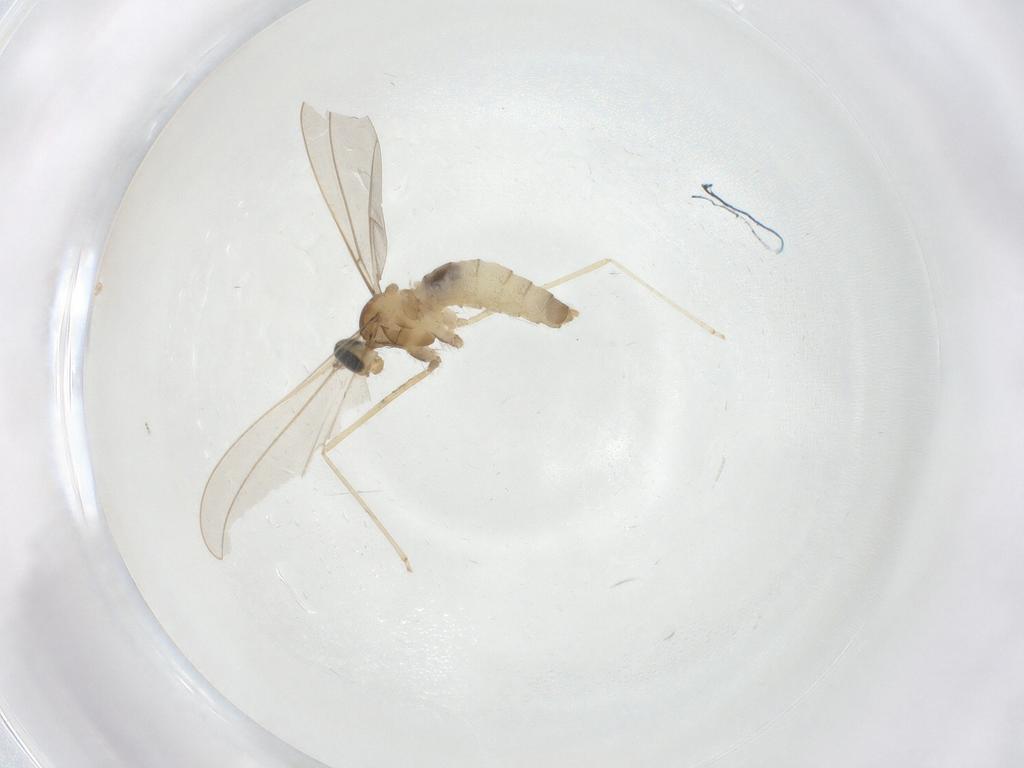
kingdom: Animalia
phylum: Arthropoda
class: Insecta
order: Diptera
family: Cecidomyiidae
